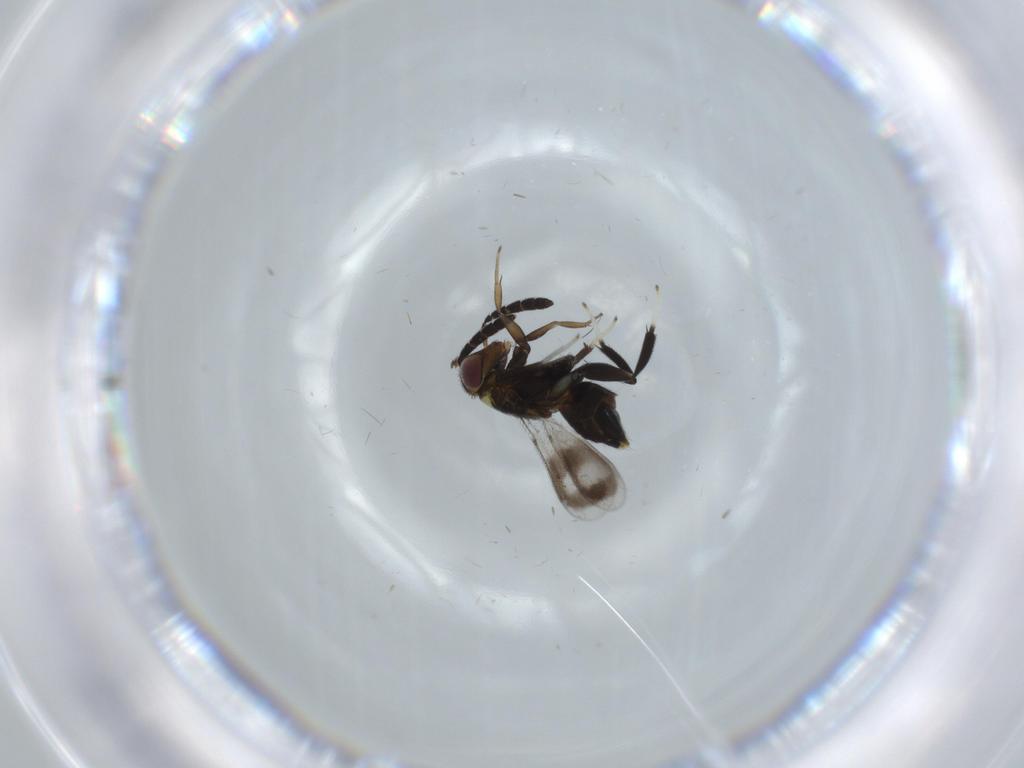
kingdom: Animalia
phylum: Arthropoda
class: Insecta
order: Hymenoptera
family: Aphelinidae
